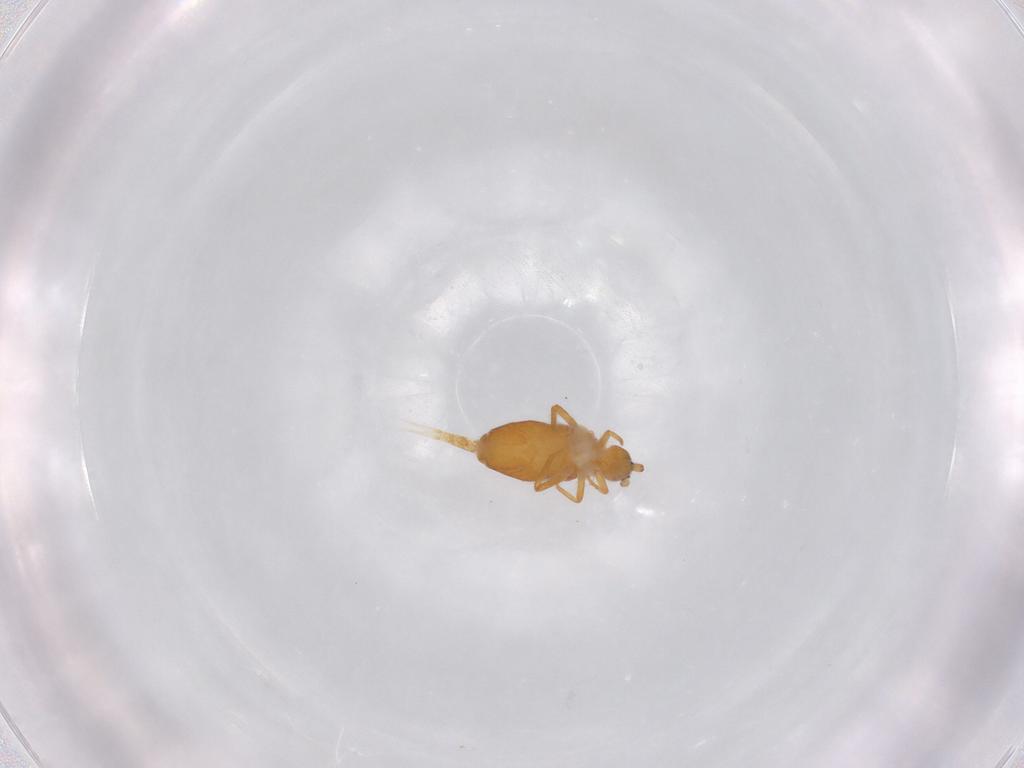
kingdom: Animalia
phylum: Arthropoda
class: Collembola
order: Entomobryomorpha
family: Entomobryidae
